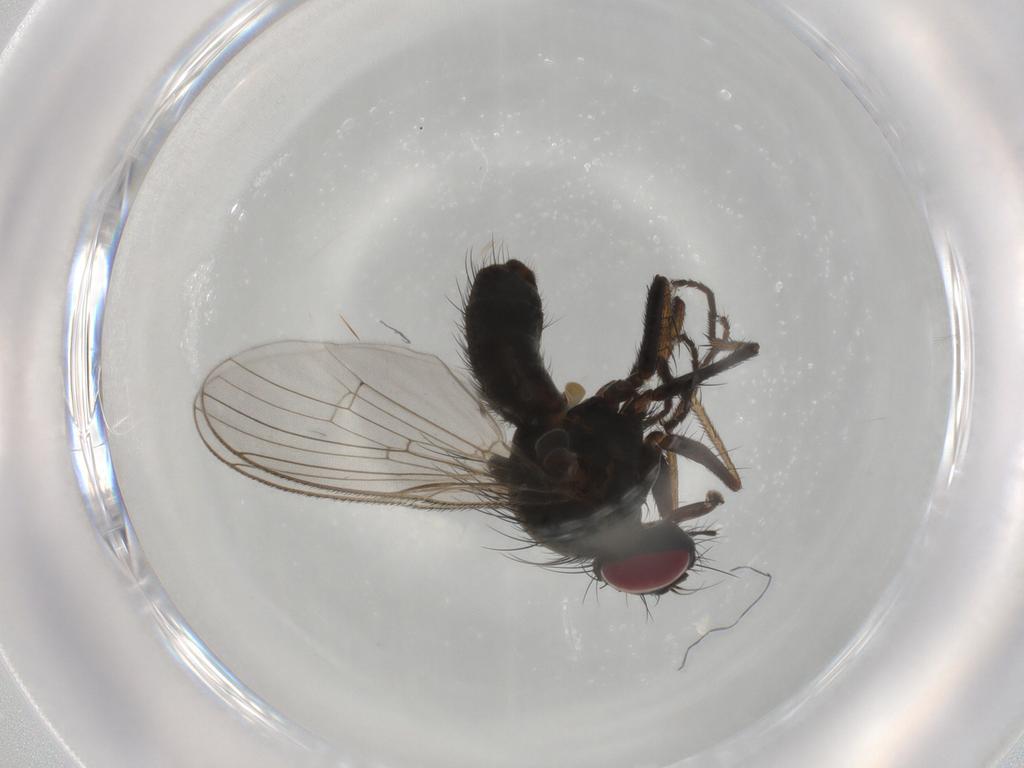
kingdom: Animalia
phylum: Arthropoda
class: Insecta
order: Diptera
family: Muscidae
